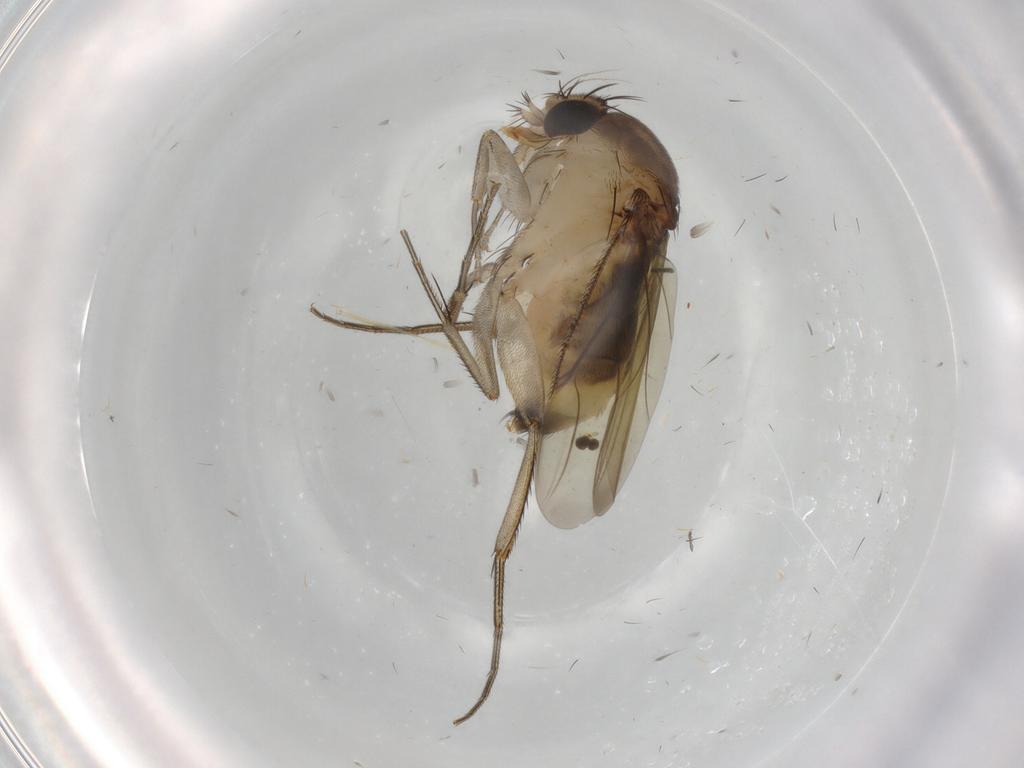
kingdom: Animalia
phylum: Arthropoda
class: Insecta
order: Diptera
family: Phoridae
